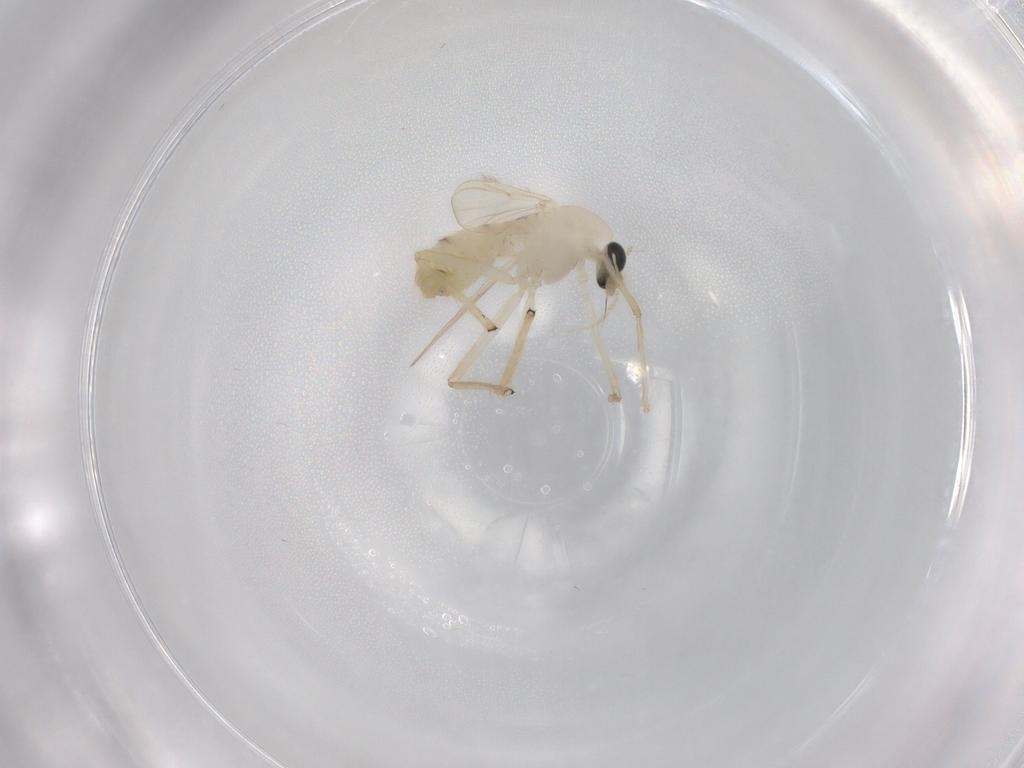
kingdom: Animalia
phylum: Arthropoda
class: Insecta
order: Diptera
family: Chironomidae
